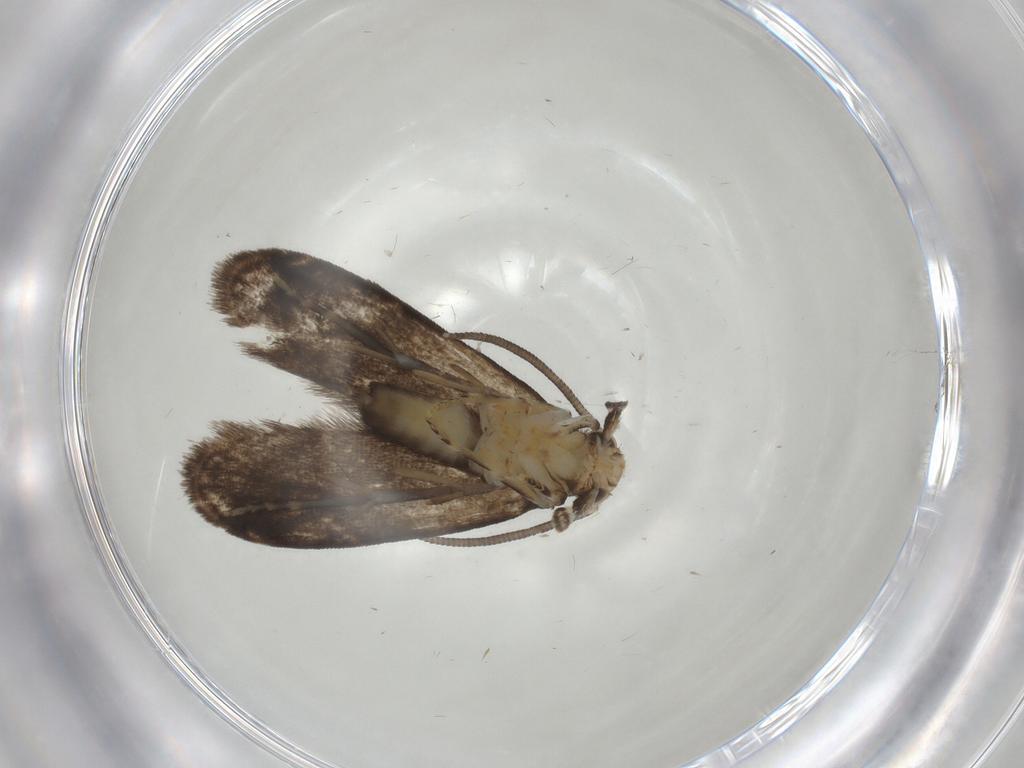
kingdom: Animalia
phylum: Arthropoda
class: Insecta
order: Lepidoptera
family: Dryadaulidae
